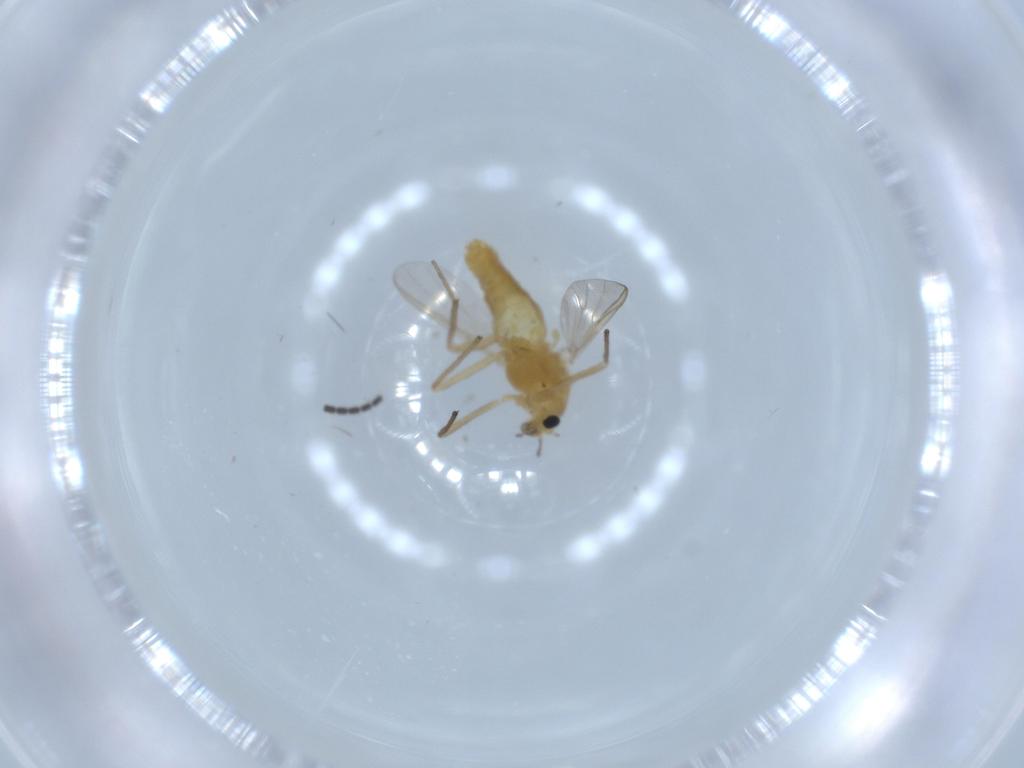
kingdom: Animalia
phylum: Arthropoda
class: Insecta
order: Diptera
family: Chironomidae
